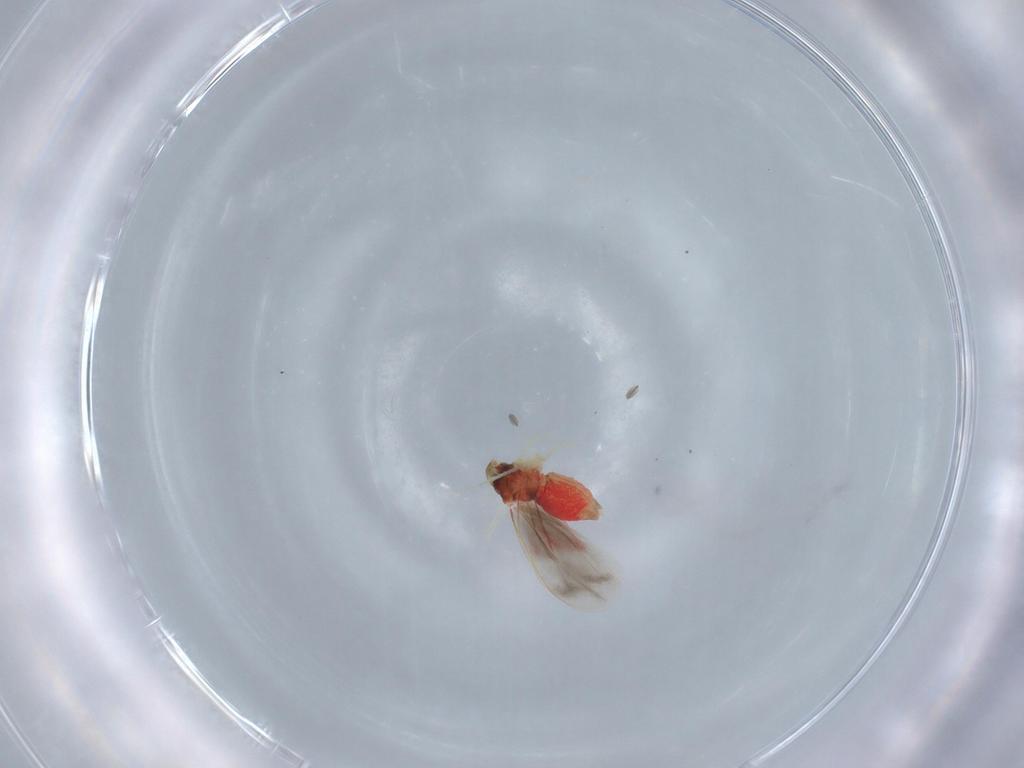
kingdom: Animalia
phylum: Arthropoda
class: Insecta
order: Hemiptera
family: Aleyrodidae
